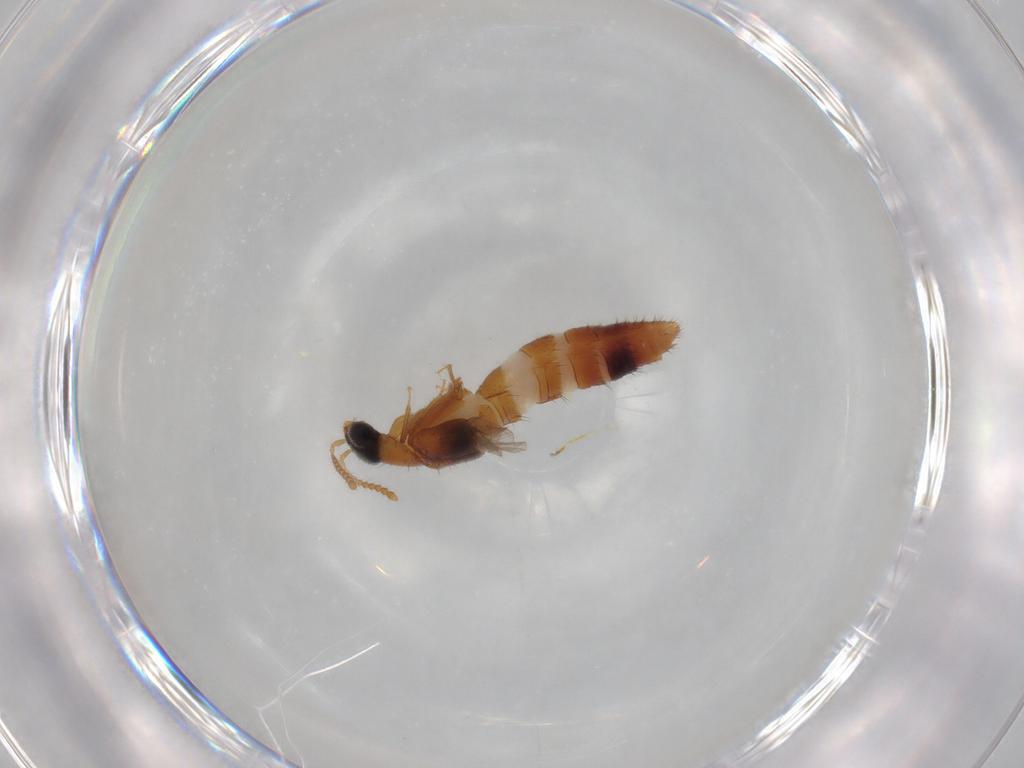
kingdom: Animalia
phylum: Arthropoda
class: Insecta
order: Coleoptera
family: Staphylinidae
